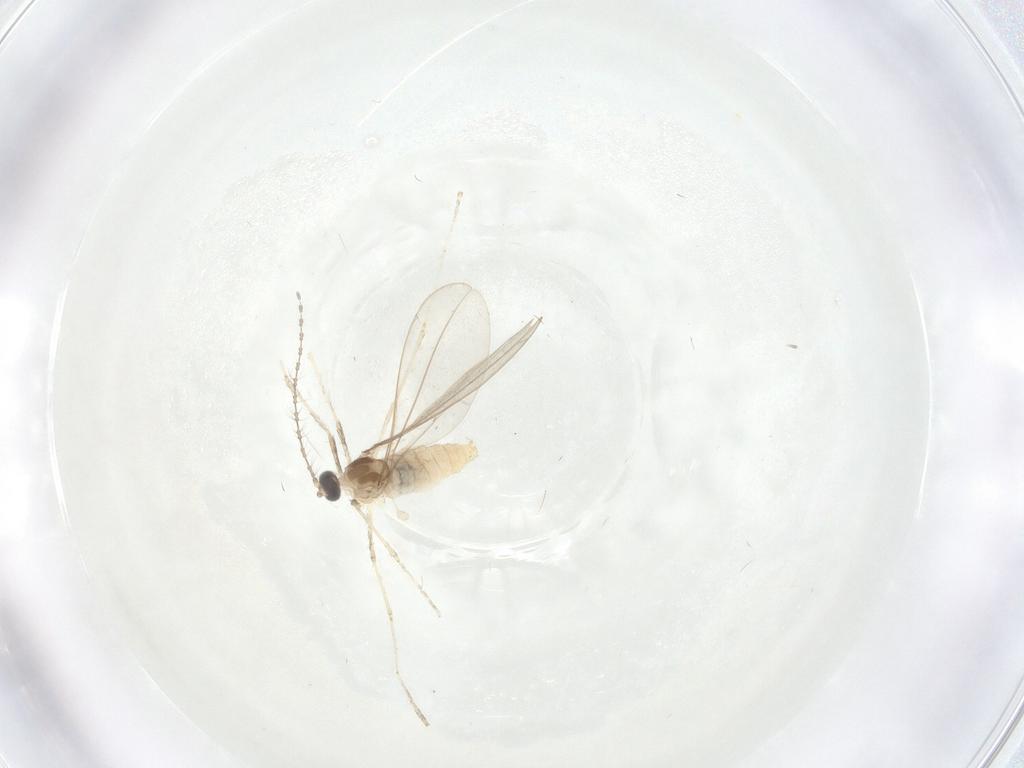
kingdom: Animalia
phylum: Arthropoda
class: Insecta
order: Diptera
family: Cecidomyiidae
